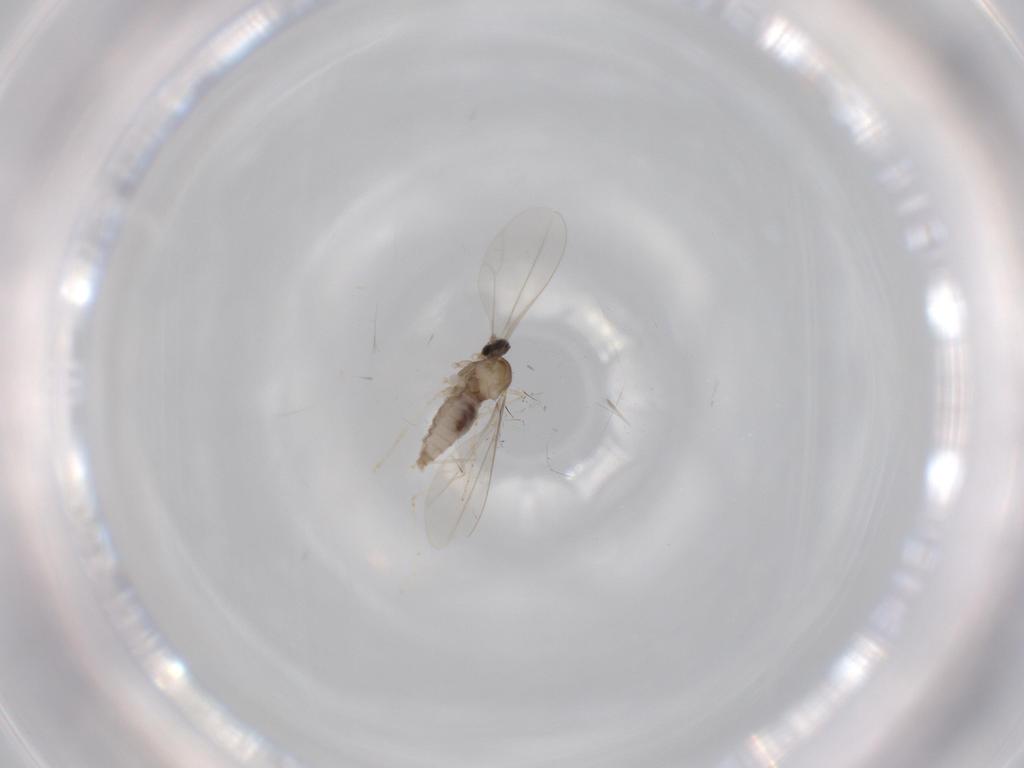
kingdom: Animalia
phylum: Arthropoda
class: Insecta
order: Diptera
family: Cecidomyiidae
